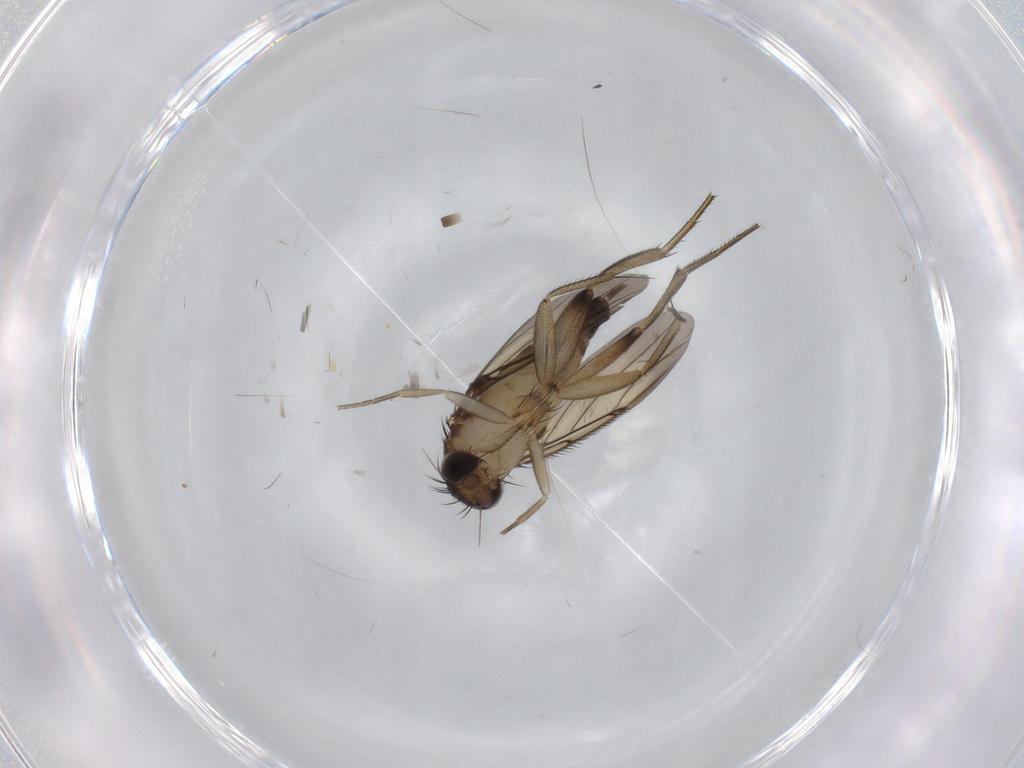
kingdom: Animalia
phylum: Arthropoda
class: Insecta
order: Diptera
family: Phoridae
